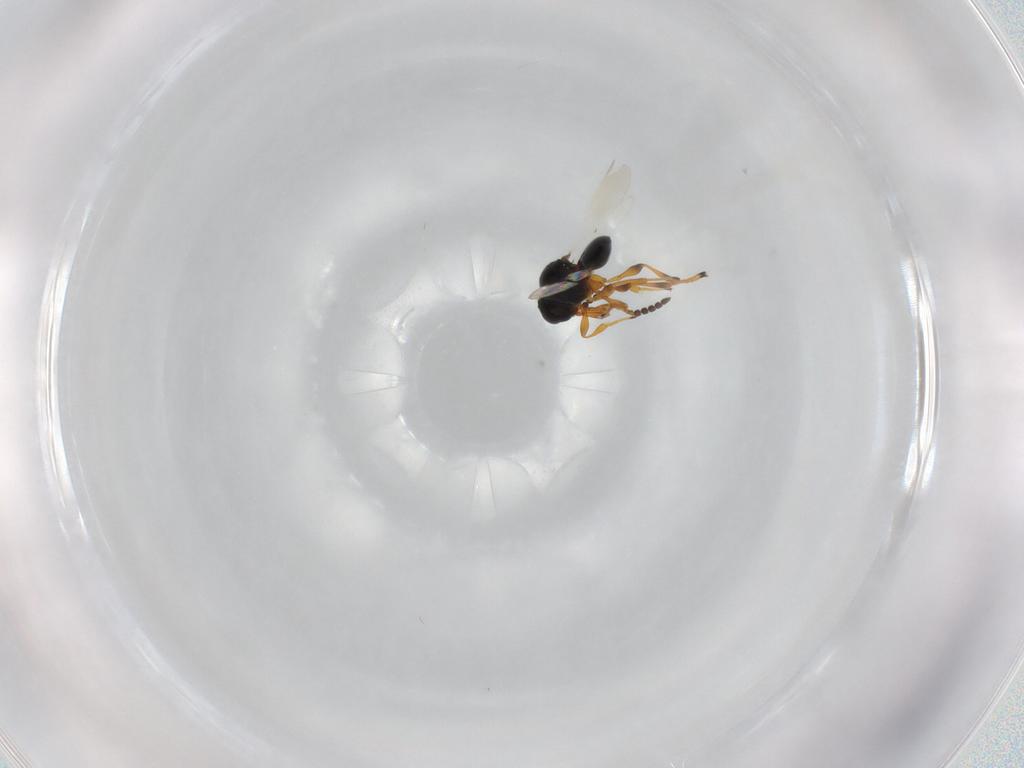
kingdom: Animalia
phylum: Arthropoda
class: Insecta
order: Hymenoptera
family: Platygastridae
